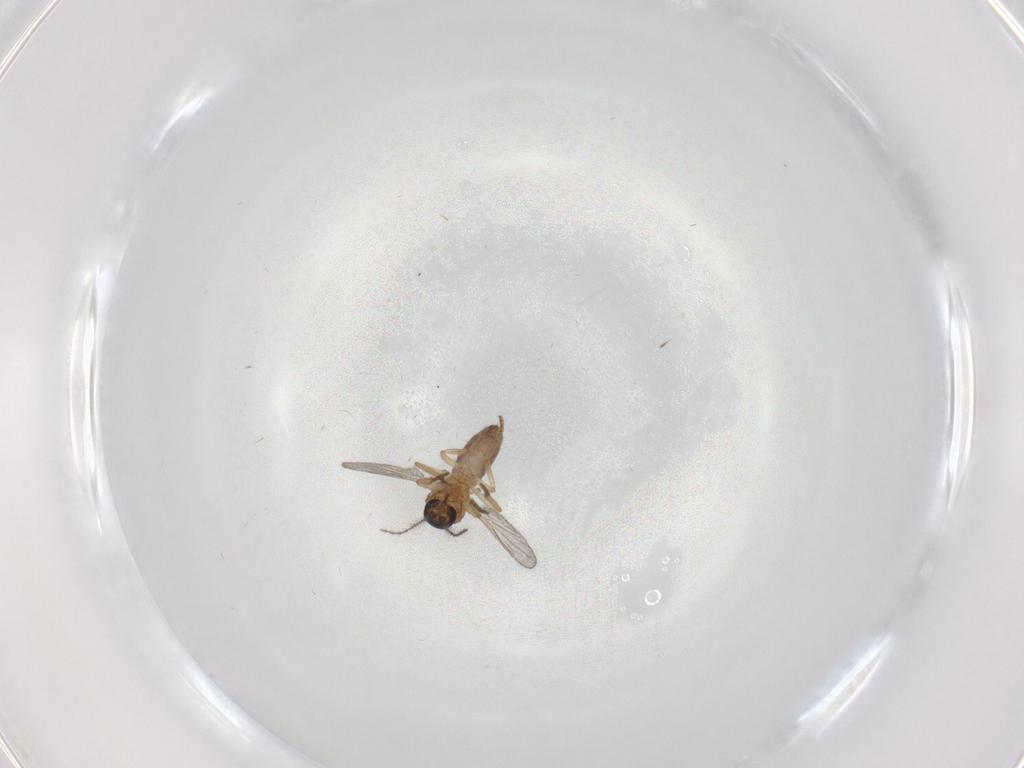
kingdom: Animalia
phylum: Arthropoda
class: Insecta
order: Diptera
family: Ceratopogonidae
